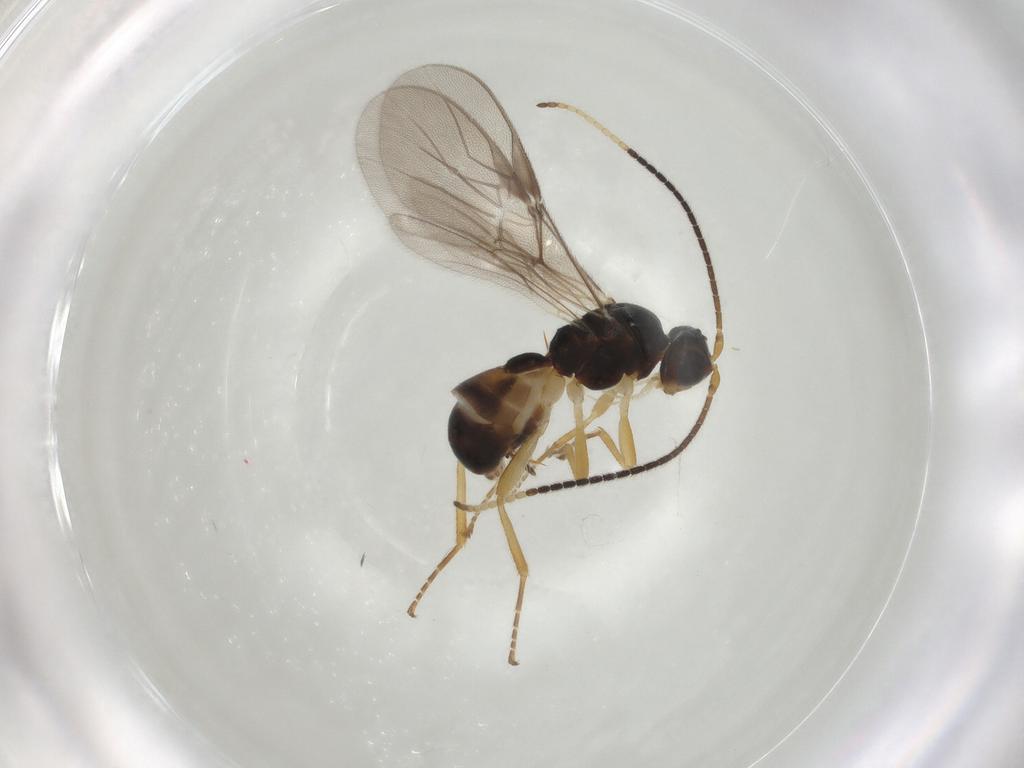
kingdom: Animalia
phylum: Arthropoda
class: Insecta
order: Hymenoptera
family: Braconidae
